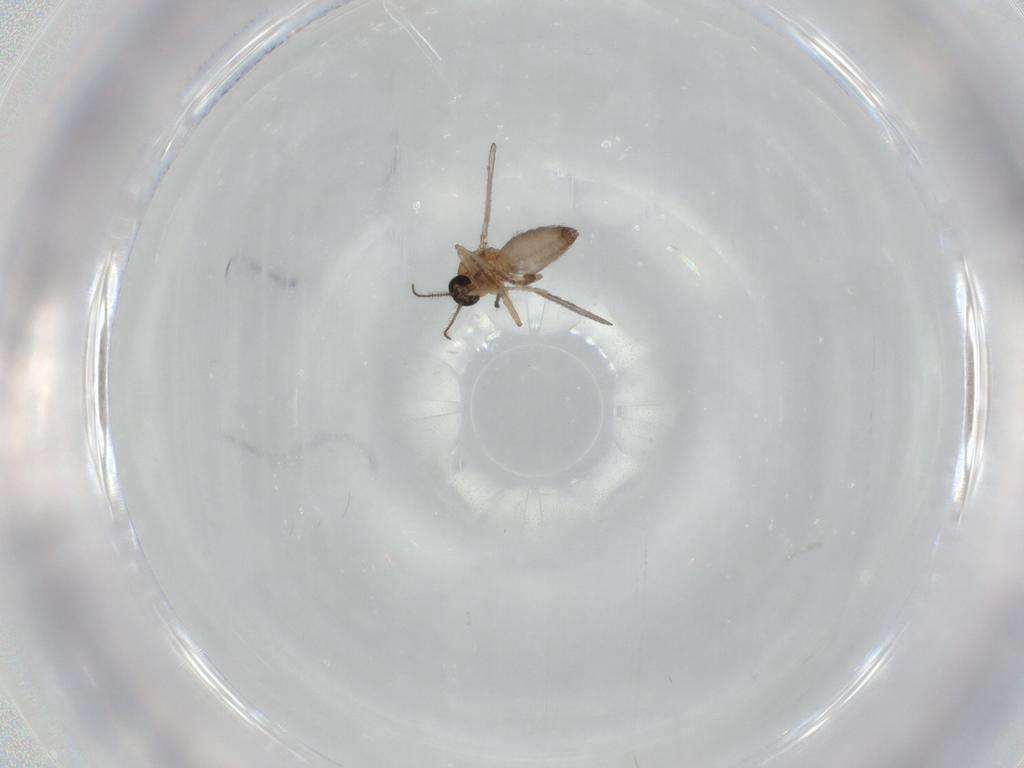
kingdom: Animalia
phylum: Arthropoda
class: Insecta
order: Diptera
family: Sciaridae
